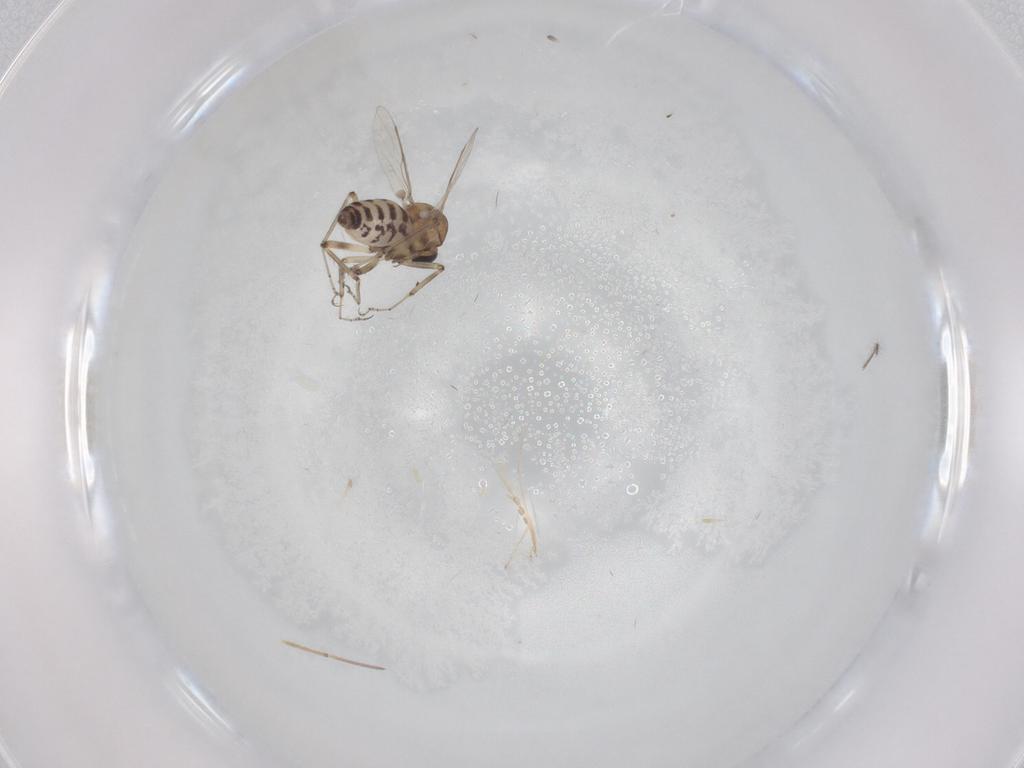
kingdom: Animalia
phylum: Arthropoda
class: Insecta
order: Diptera
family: Ceratopogonidae
